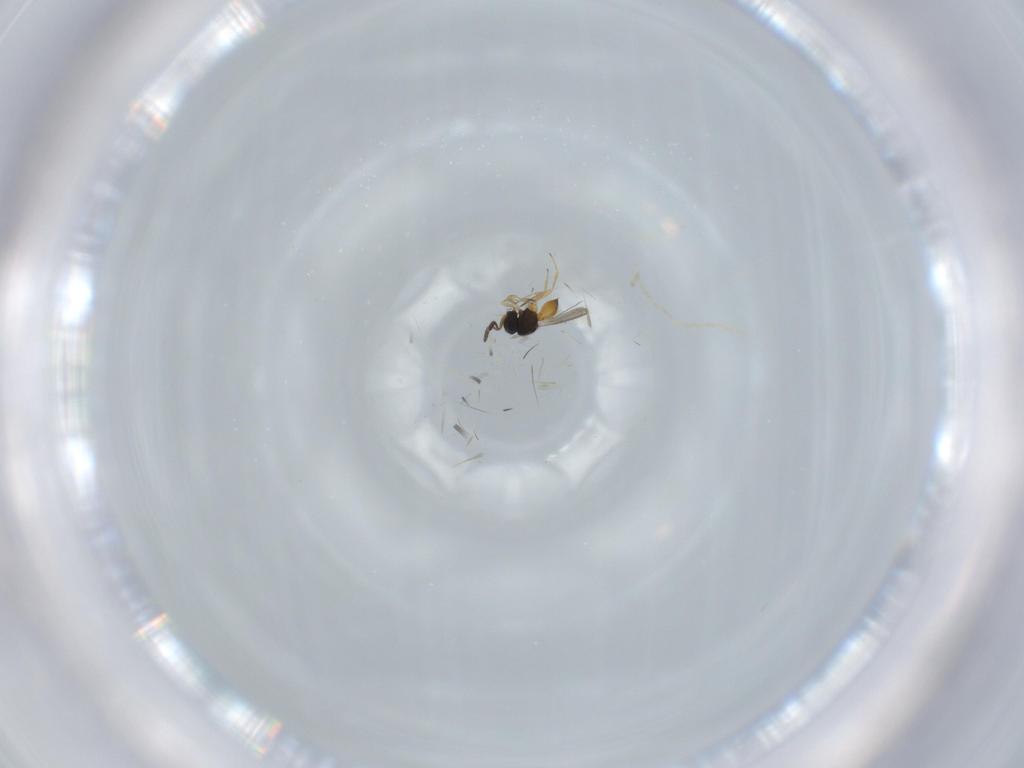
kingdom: Animalia
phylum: Arthropoda
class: Insecta
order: Hymenoptera
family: Scelionidae
